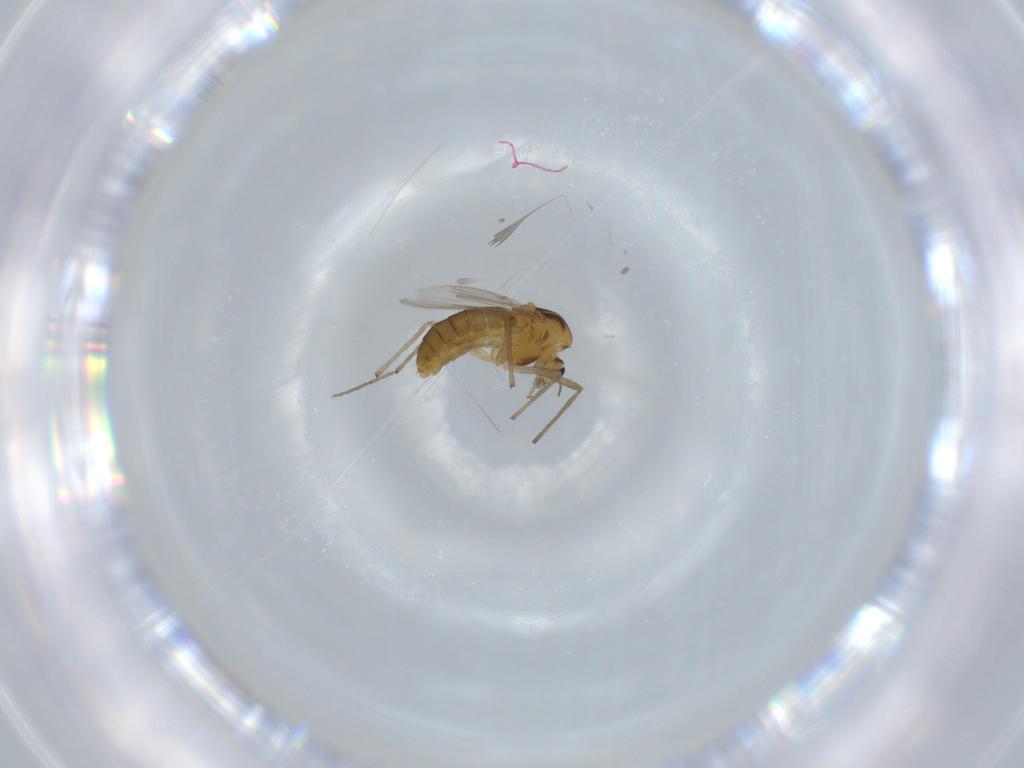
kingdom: Animalia
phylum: Arthropoda
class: Insecta
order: Diptera
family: Chironomidae
